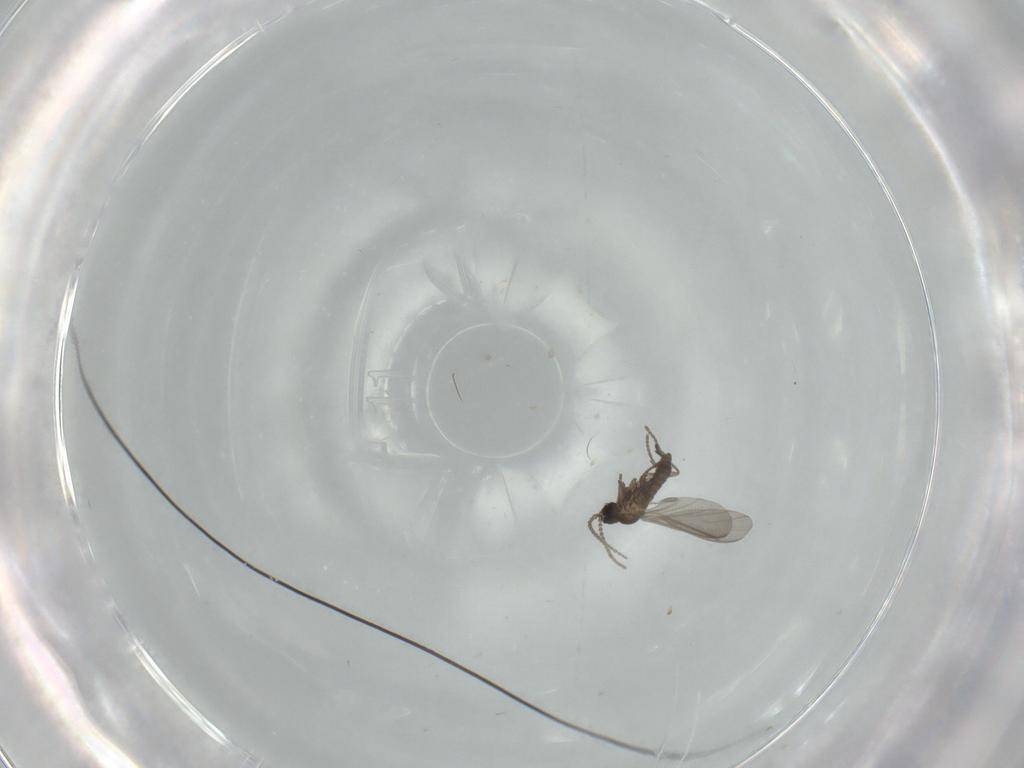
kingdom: Animalia
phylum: Arthropoda
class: Insecta
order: Diptera
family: Cecidomyiidae
